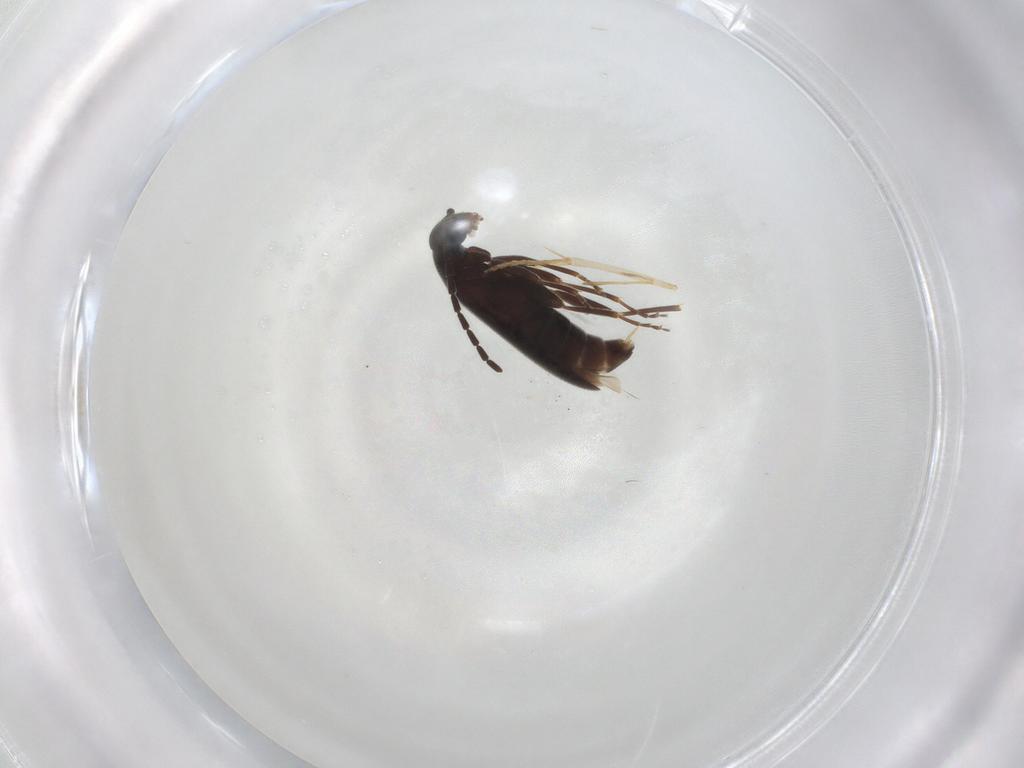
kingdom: Animalia
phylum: Arthropoda
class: Insecta
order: Coleoptera
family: Scraptiidae
